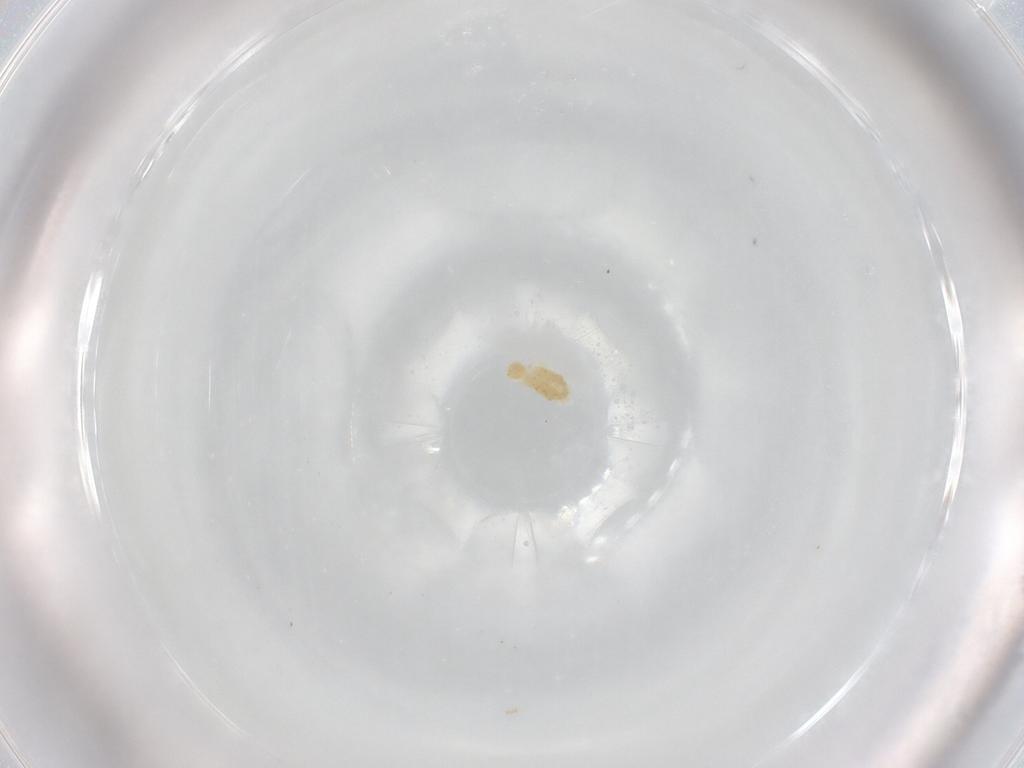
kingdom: Animalia
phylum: Arthropoda
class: Arachnida
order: Trombidiformes
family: Eupodidae
